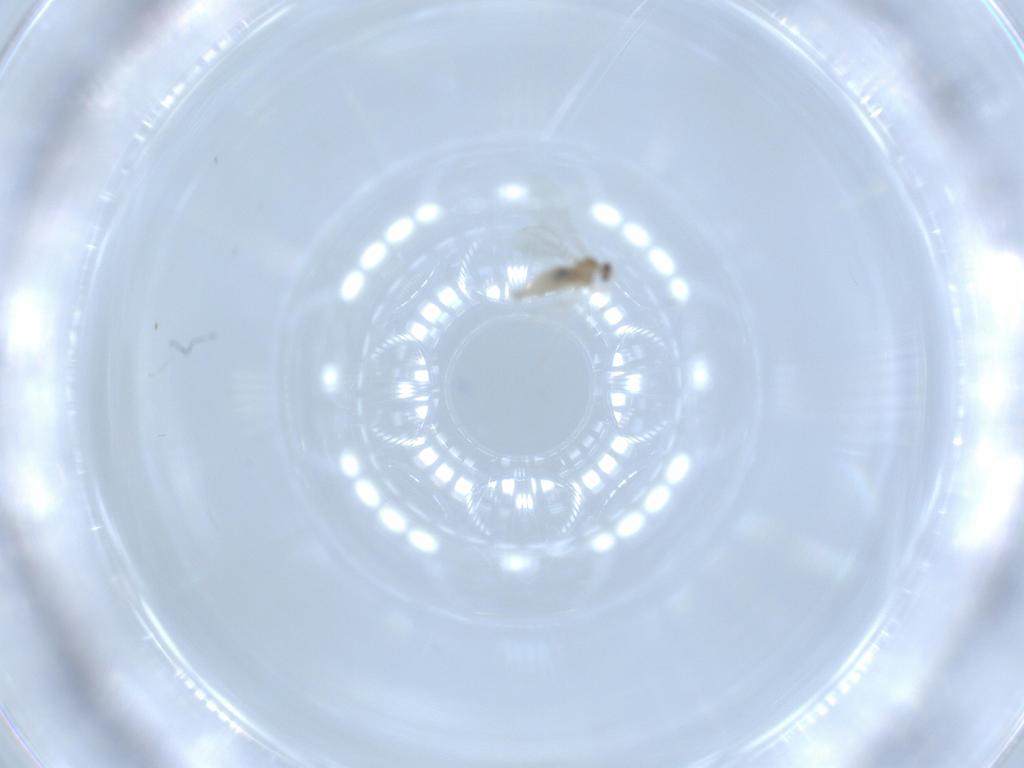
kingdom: Animalia
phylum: Arthropoda
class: Insecta
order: Diptera
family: Cecidomyiidae
